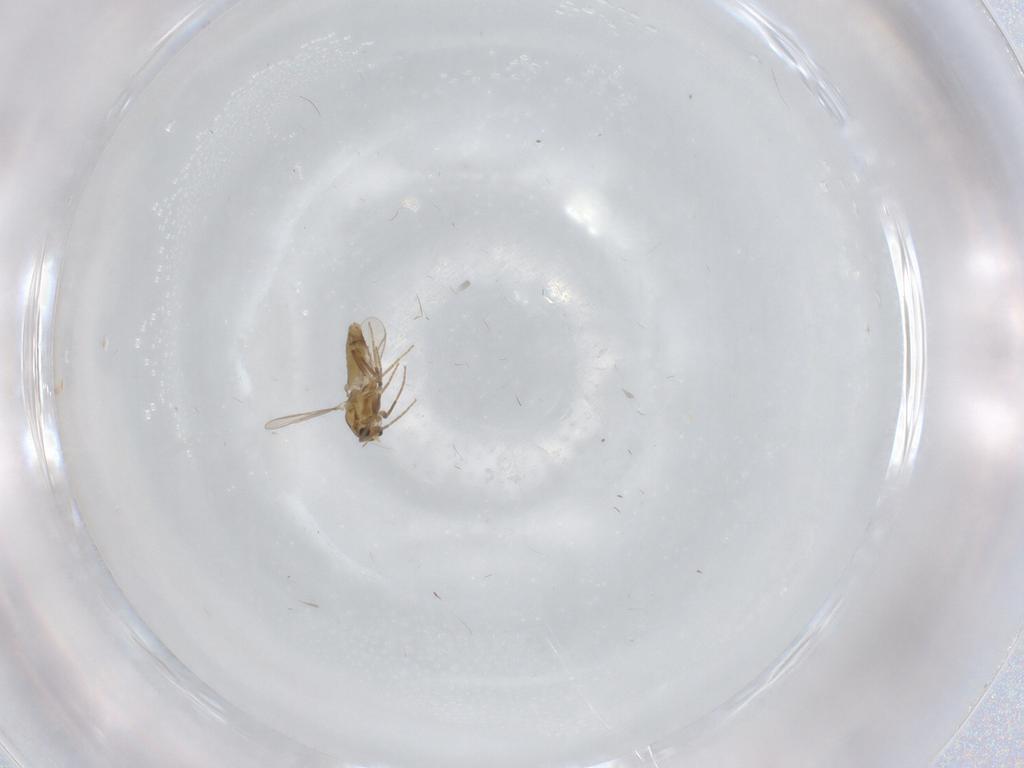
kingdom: Animalia
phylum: Arthropoda
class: Insecta
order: Diptera
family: Chironomidae
